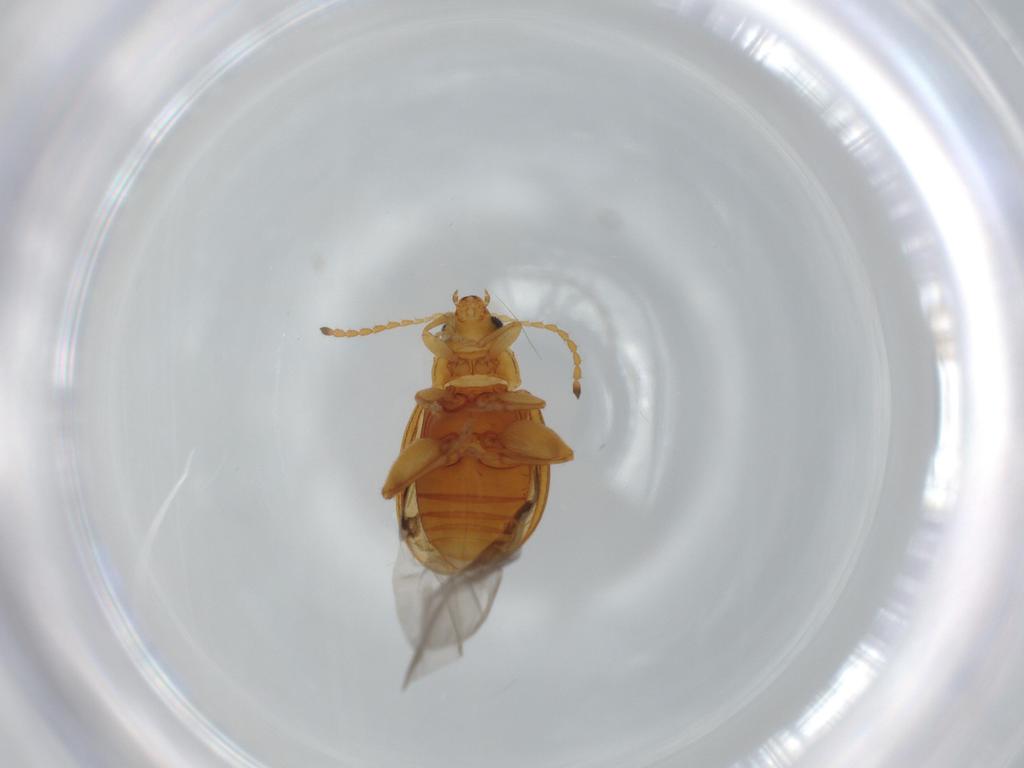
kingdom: Animalia
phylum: Arthropoda
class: Insecta
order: Coleoptera
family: Chrysomelidae
